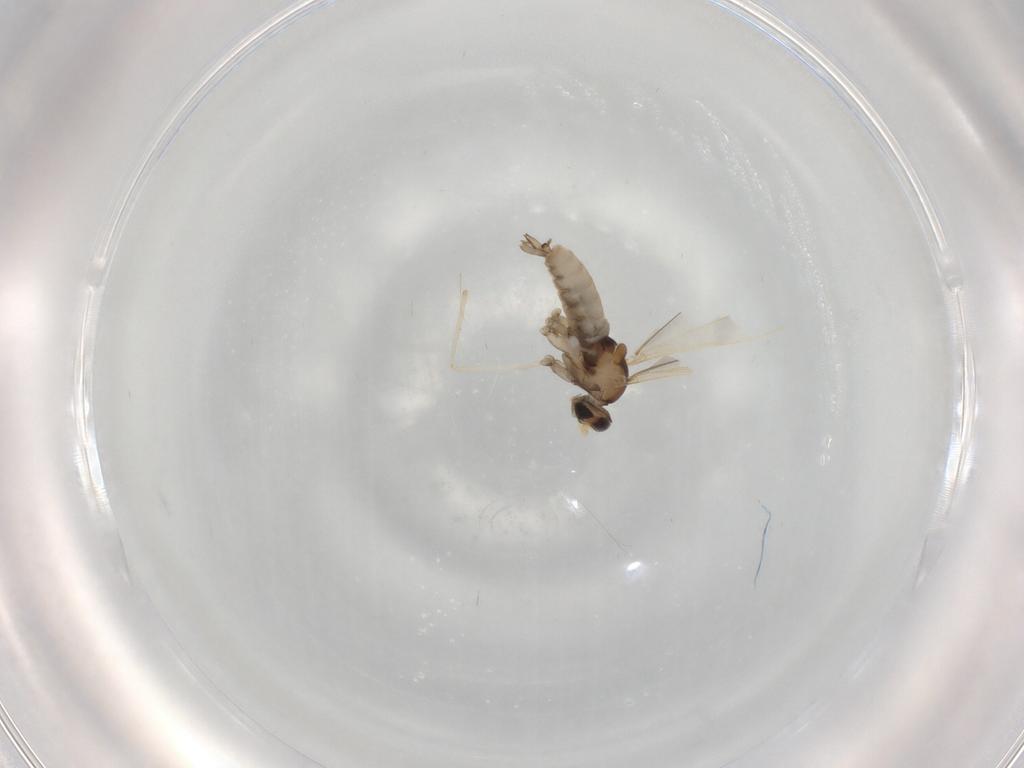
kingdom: Animalia
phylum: Arthropoda
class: Insecta
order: Diptera
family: Cecidomyiidae
